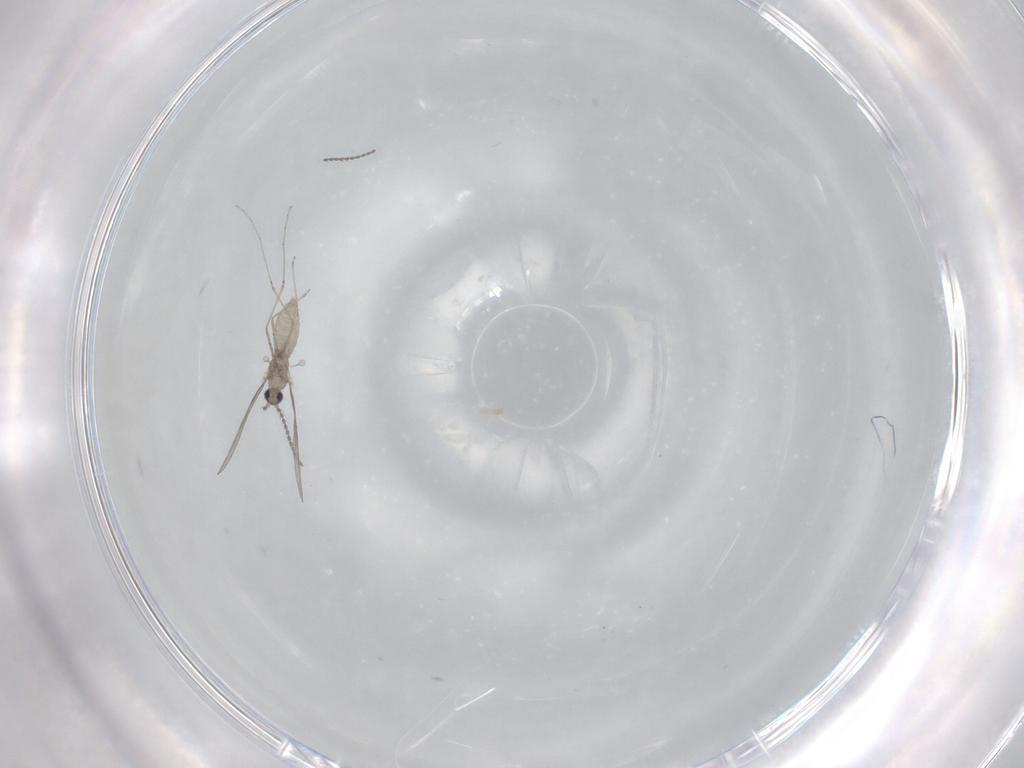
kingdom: Animalia
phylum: Arthropoda
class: Insecta
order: Diptera
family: Cecidomyiidae
